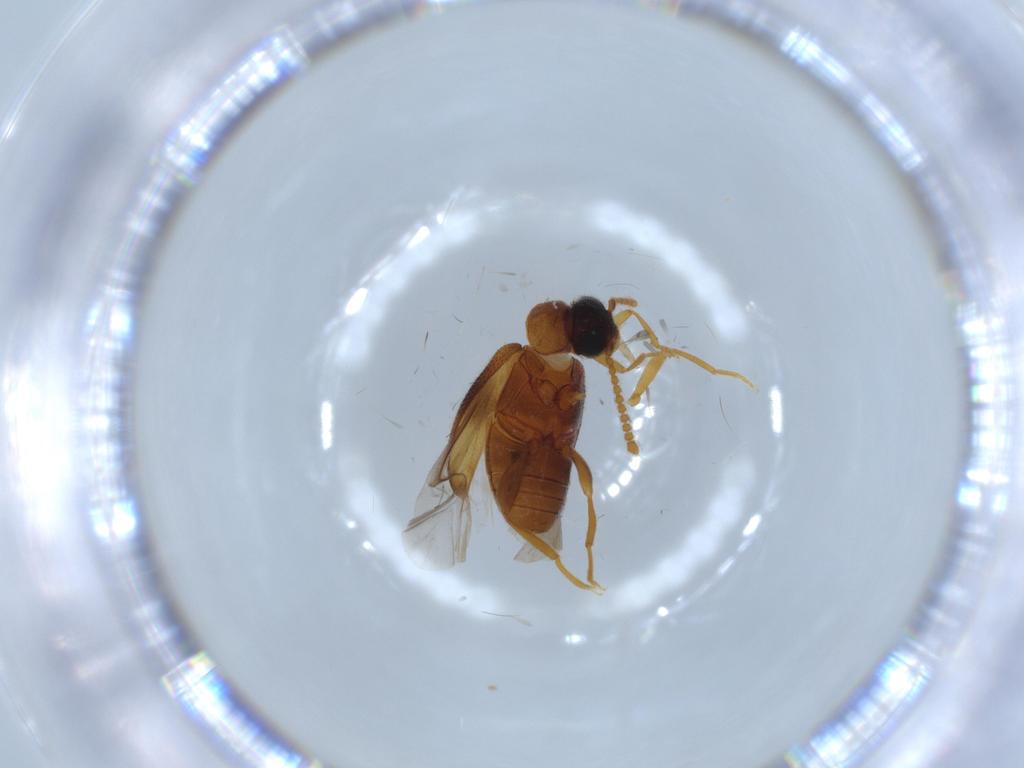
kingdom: Animalia
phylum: Arthropoda
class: Insecta
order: Coleoptera
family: Aderidae
